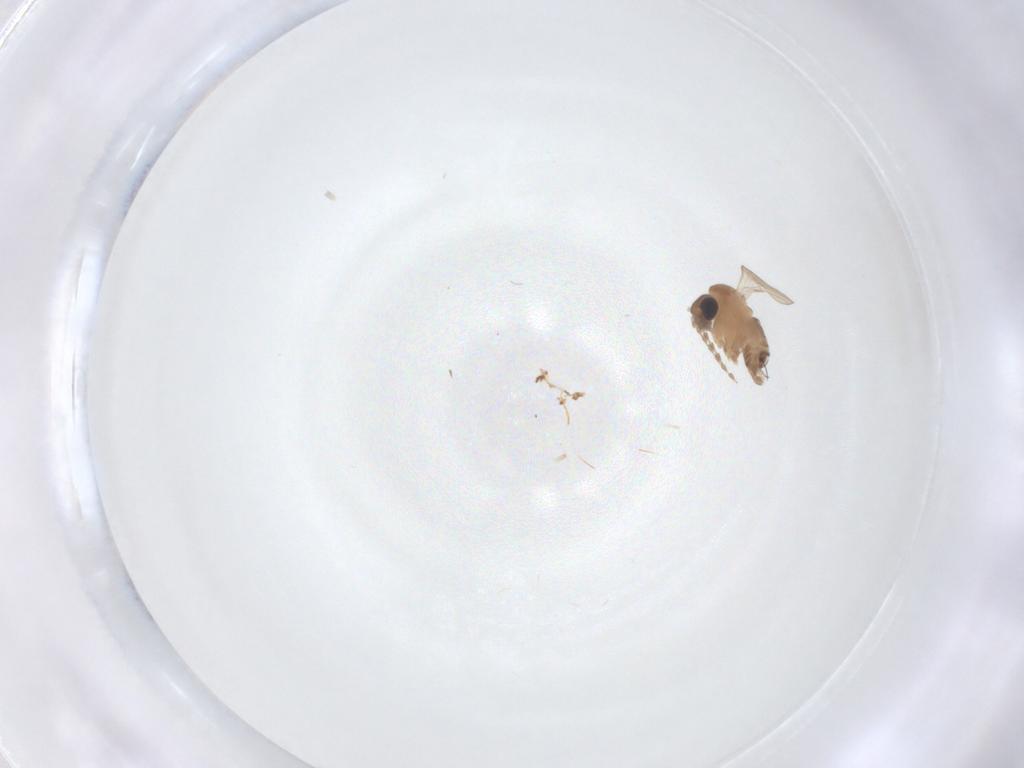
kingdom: Animalia
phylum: Arthropoda
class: Insecta
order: Diptera
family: Psychodidae
